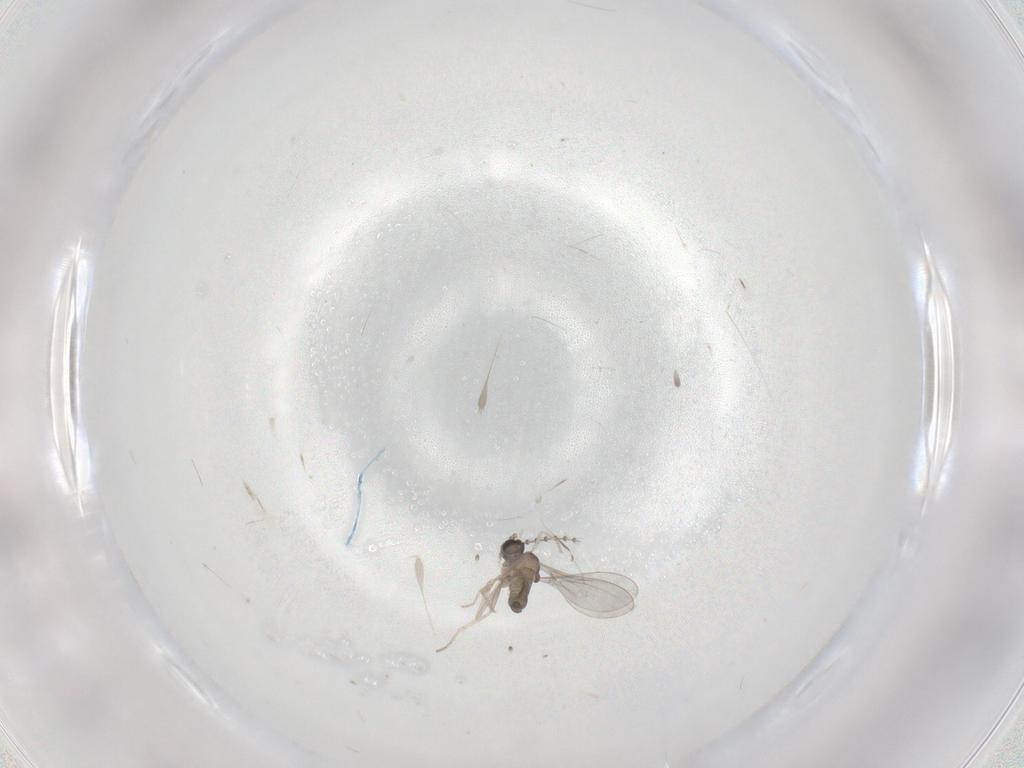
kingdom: Animalia
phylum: Arthropoda
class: Insecta
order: Diptera
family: Cecidomyiidae
